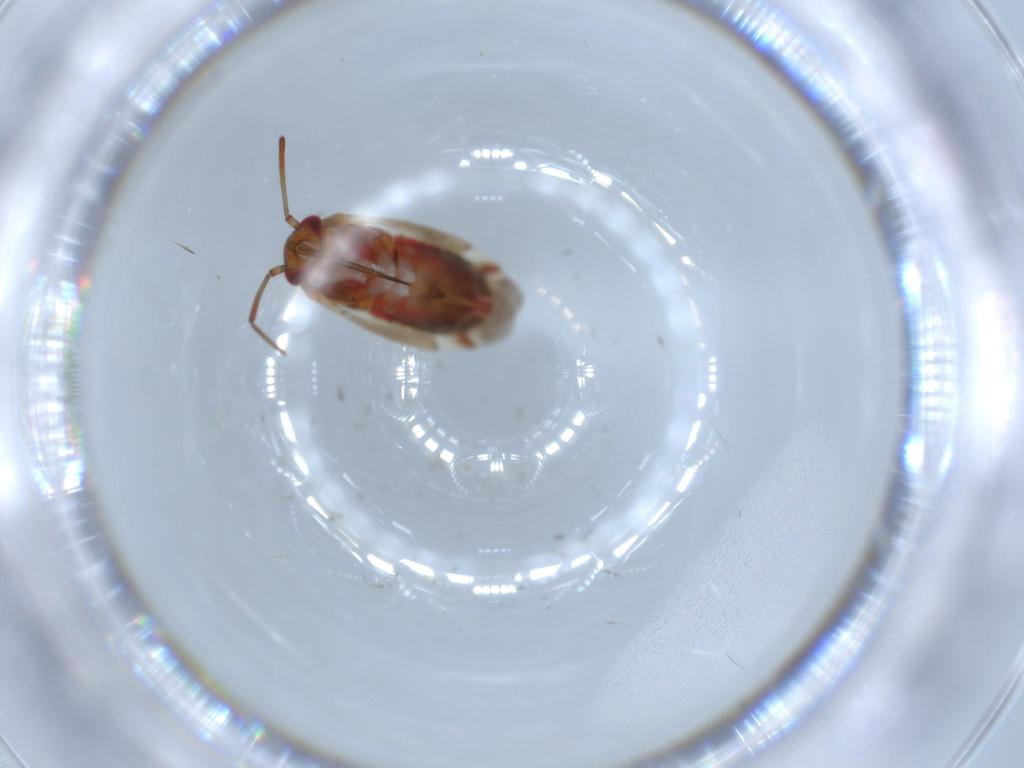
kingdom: Animalia
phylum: Arthropoda
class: Insecta
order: Hemiptera
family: Miridae
